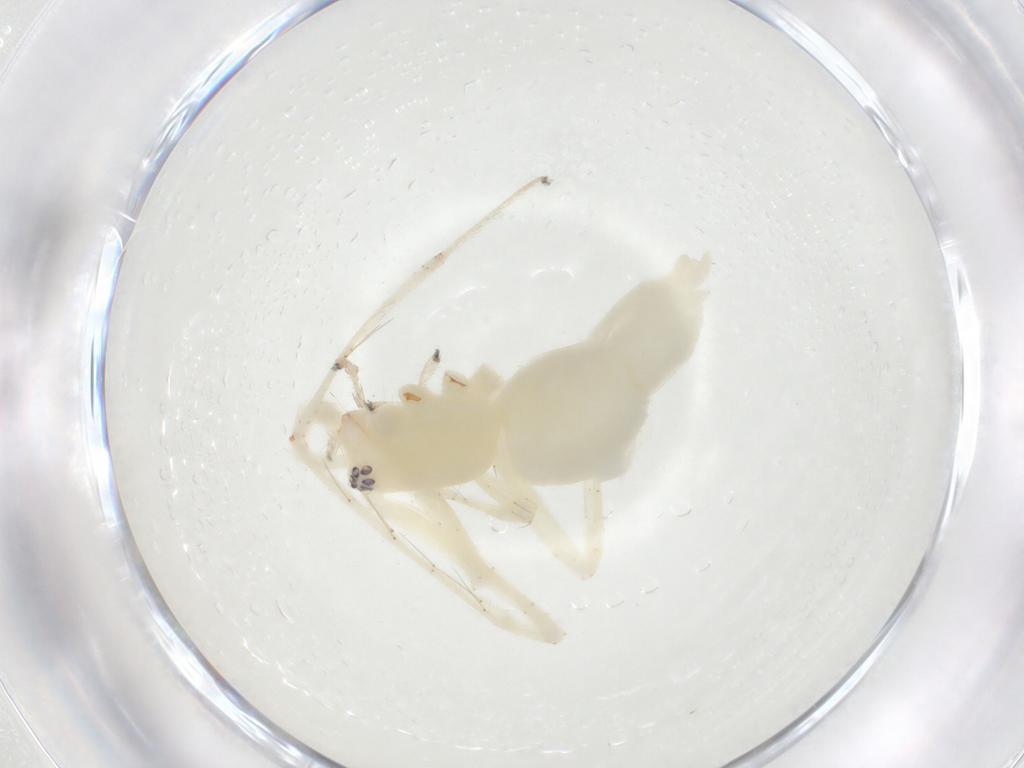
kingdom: Animalia
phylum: Arthropoda
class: Arachnida
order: Araneae
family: Anyphaenidae
